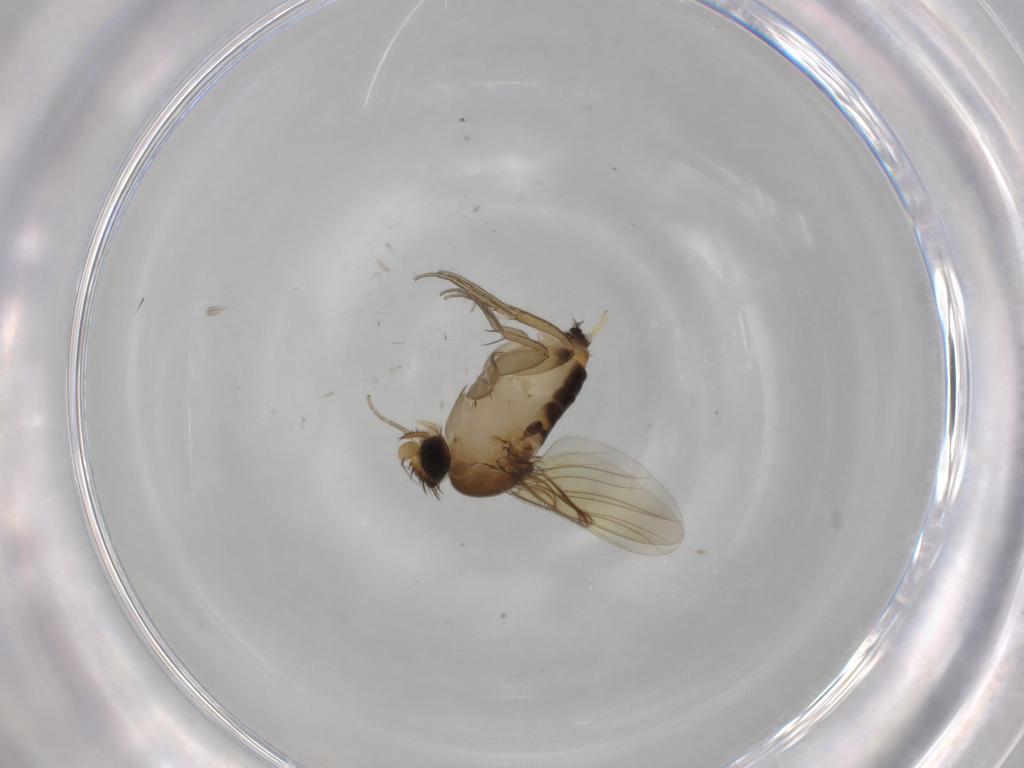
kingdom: Animalia
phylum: Arthropoda
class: Insecta
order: Diptera
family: Phoridae
